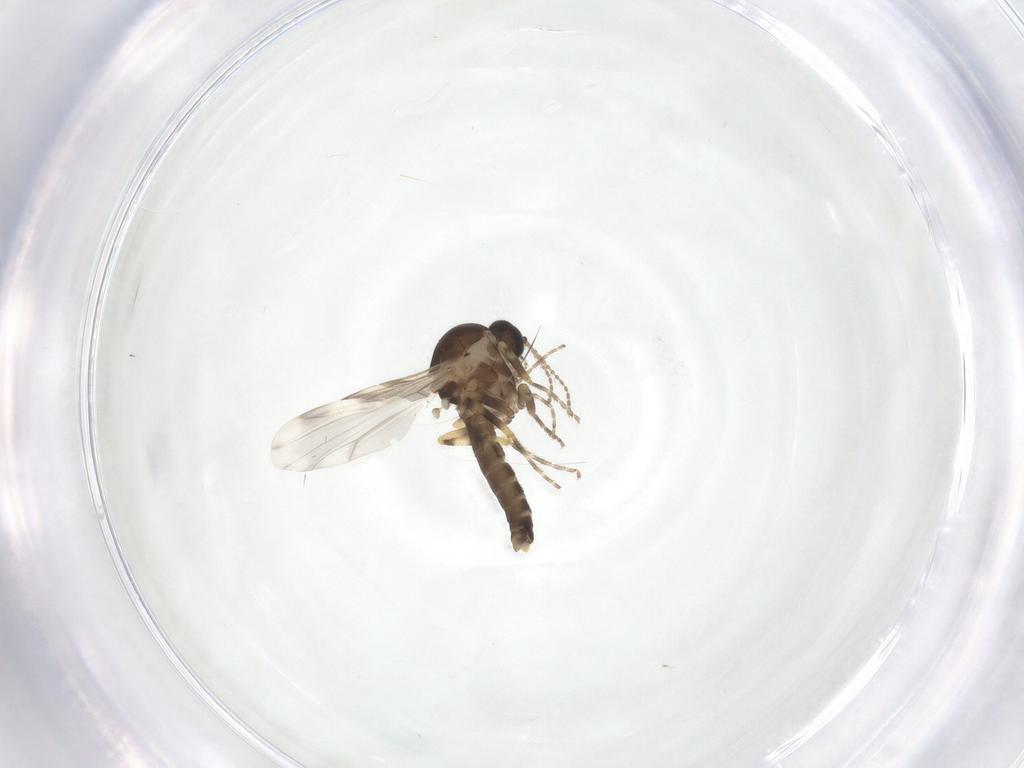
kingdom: Animalia
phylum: Arthropoda
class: Insecta
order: Diptera
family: Ceratopogonidae
